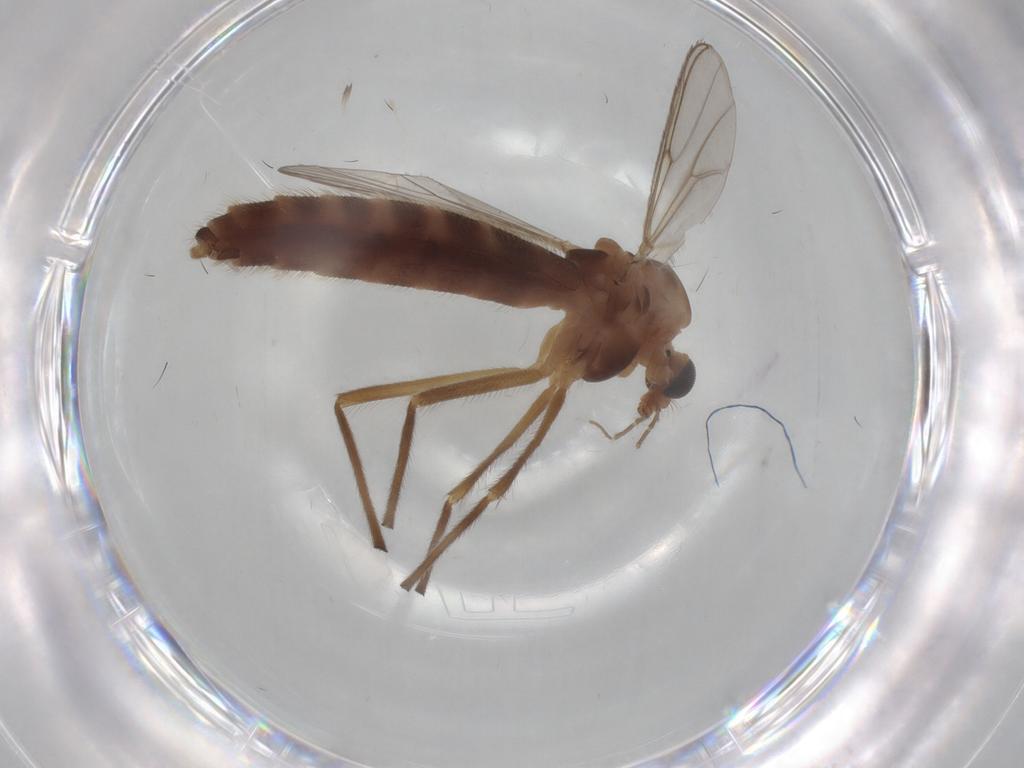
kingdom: Animalia
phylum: Arthropoda
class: Insecta
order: Diptera
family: Chironomidae
